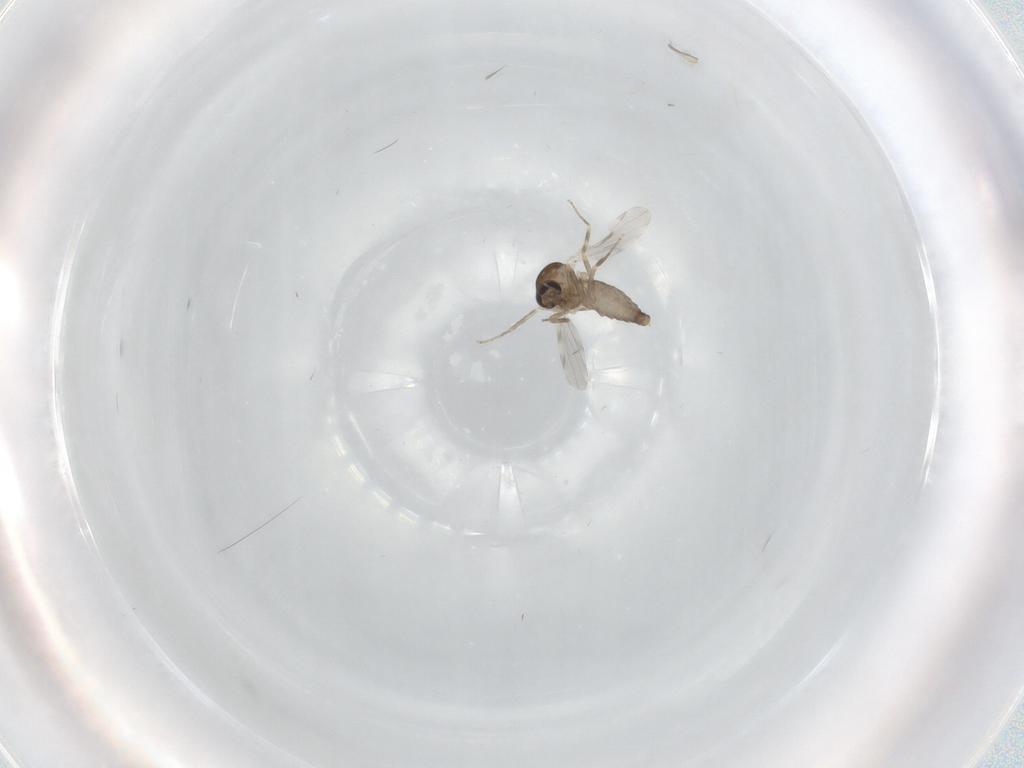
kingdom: Animalia
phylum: Arthropoda
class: Insecta
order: Diptera
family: Ceratopogonidae
